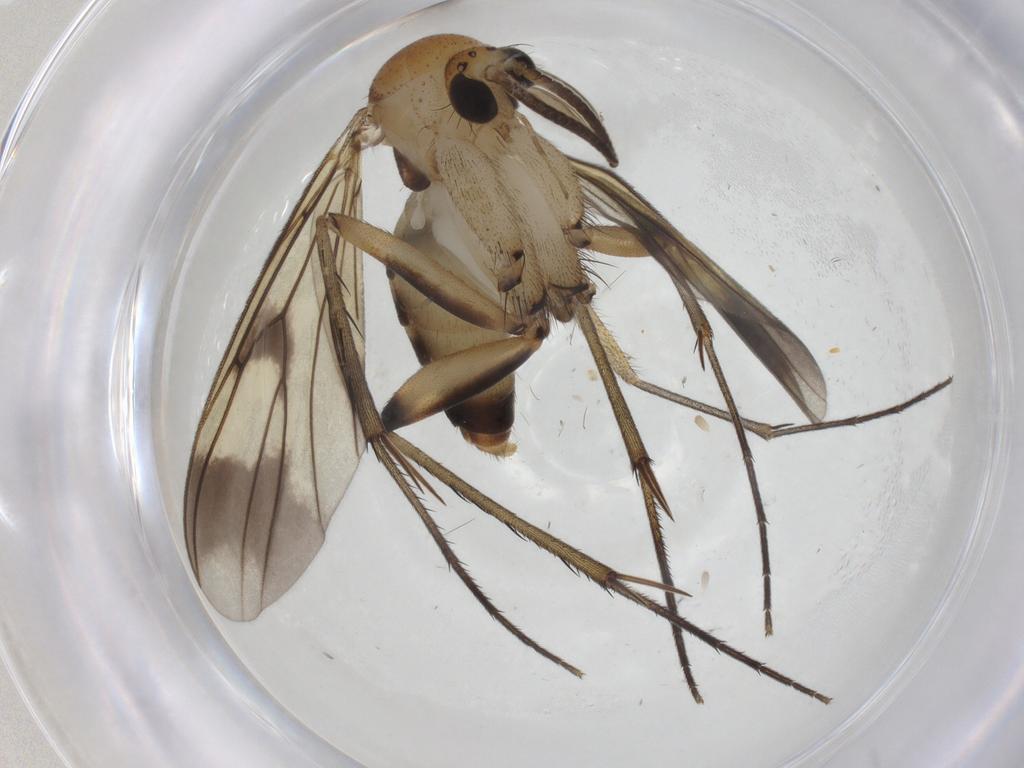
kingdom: Animalia
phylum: Arthropoda
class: Insecta
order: Diptera
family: Mycetophilidae
